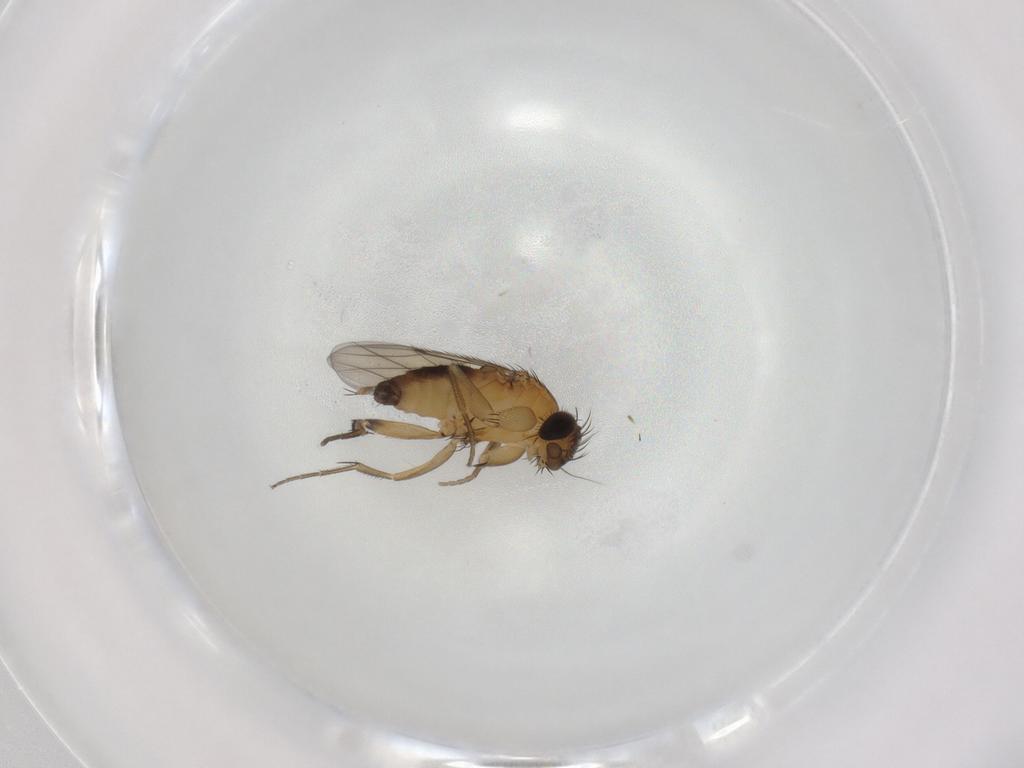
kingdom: Animalia
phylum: Arthropoda
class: Insecta
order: Diptera
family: Phoridae
